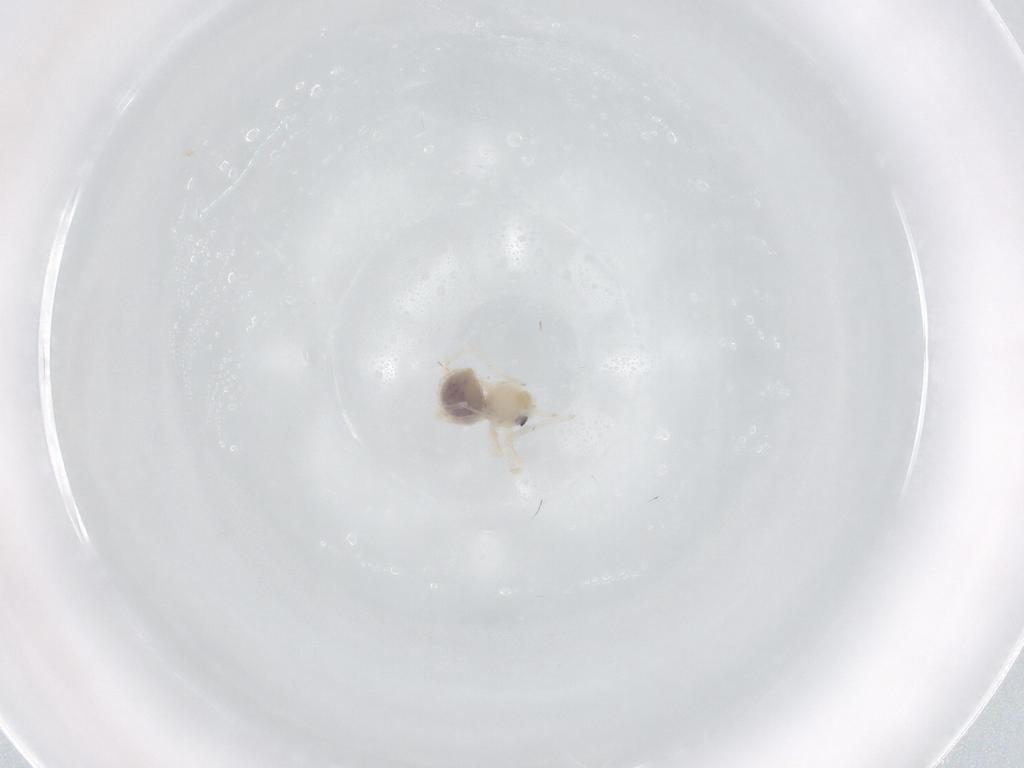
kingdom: Animalia
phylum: Arthropoda
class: Arachnida
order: Araneae
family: Pholcidae
